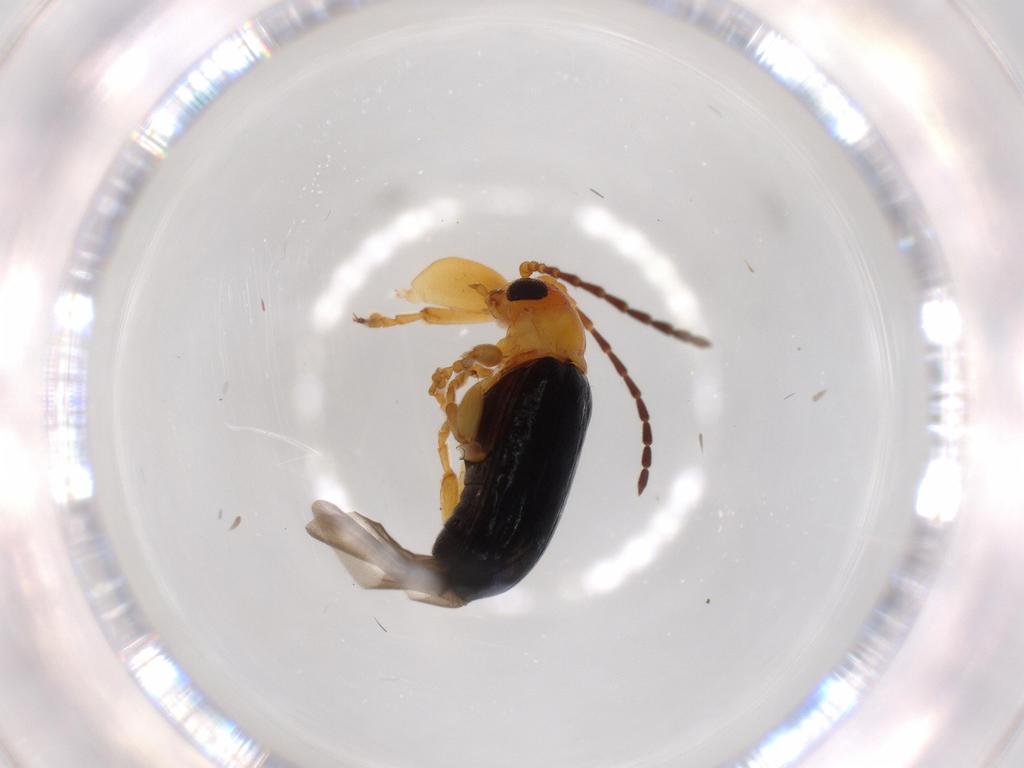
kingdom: Animalia
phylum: Arthropoda
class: Insecta
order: Coleoptera
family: Chrysomelidae
